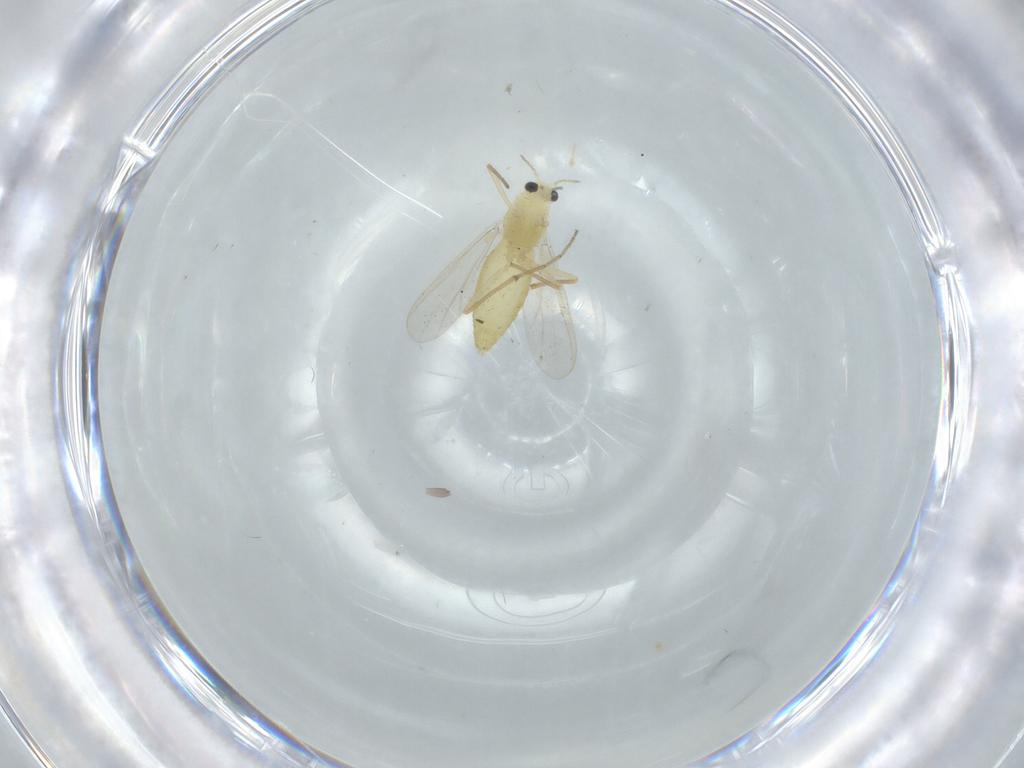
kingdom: Animalia
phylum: Arthropoda
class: Insecta
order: Diptera
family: Chironomidae
